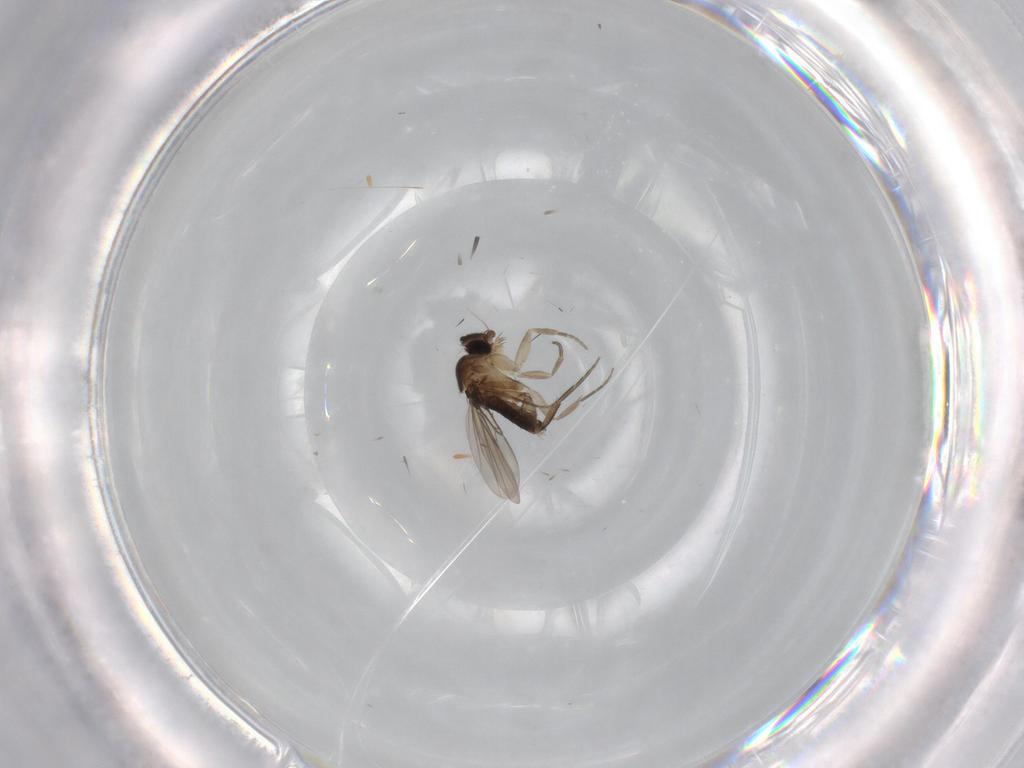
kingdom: Animalia
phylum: Arthropoda
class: Insecta
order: Diptera
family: Phoridae
